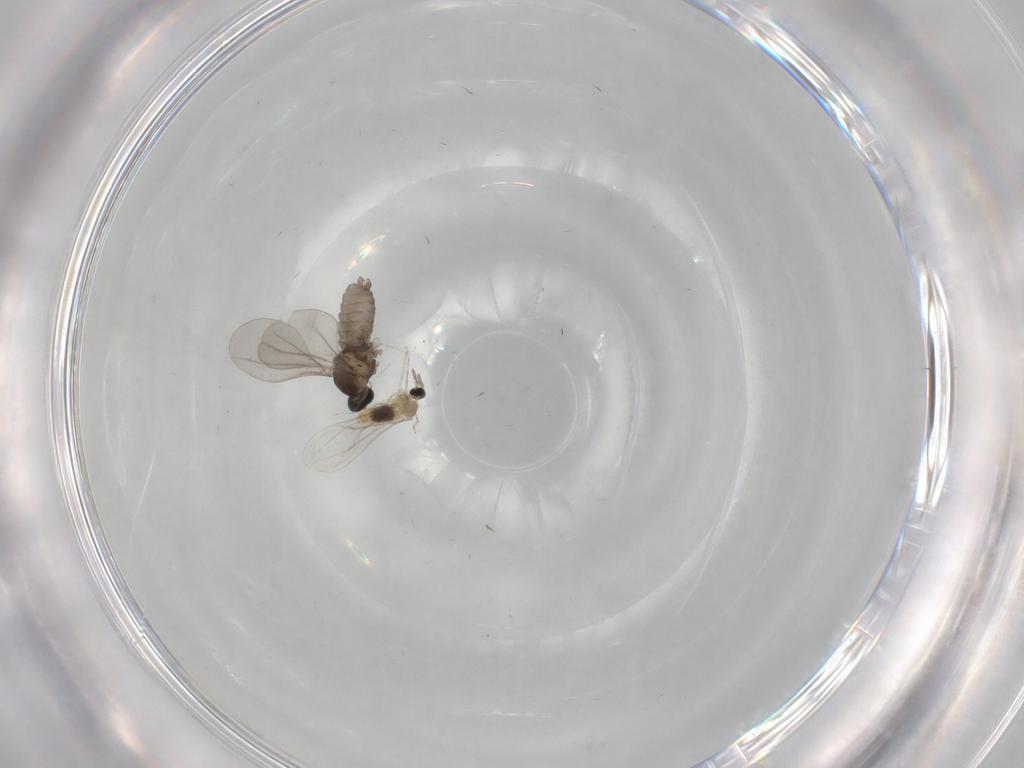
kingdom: Animalia
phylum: Arthropoda
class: Insecta
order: Diptera
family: Cecidomyiidae
